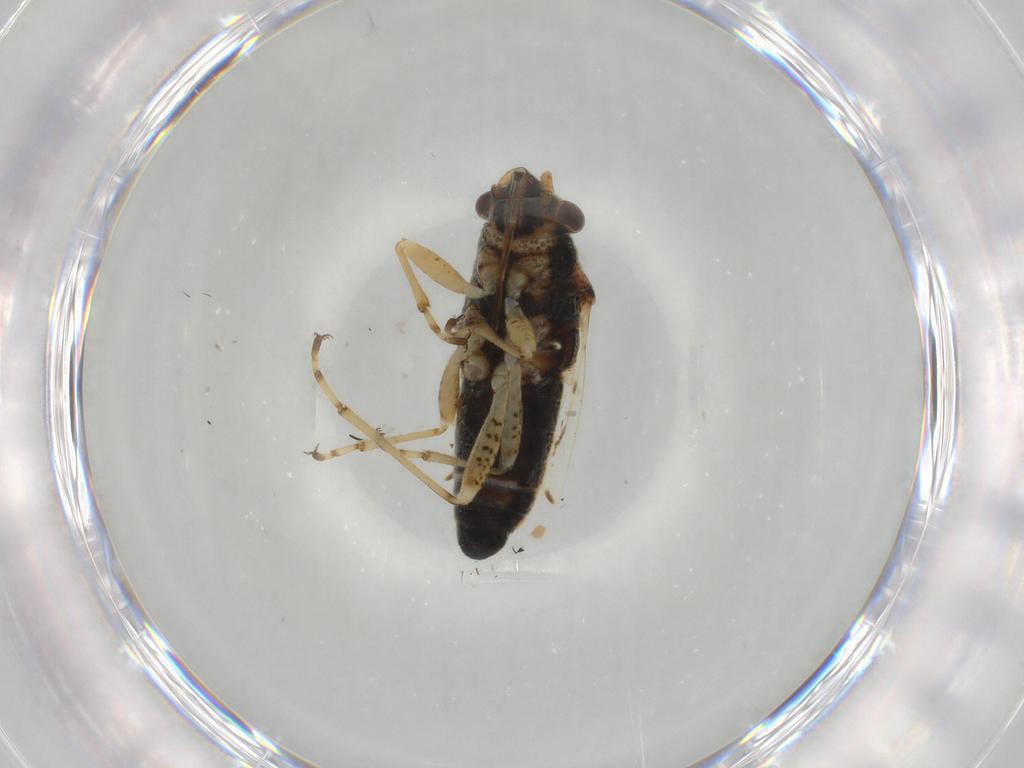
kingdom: Animalia
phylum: Arthropoda
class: Insecta
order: Hemiptera
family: Lygaeidae
